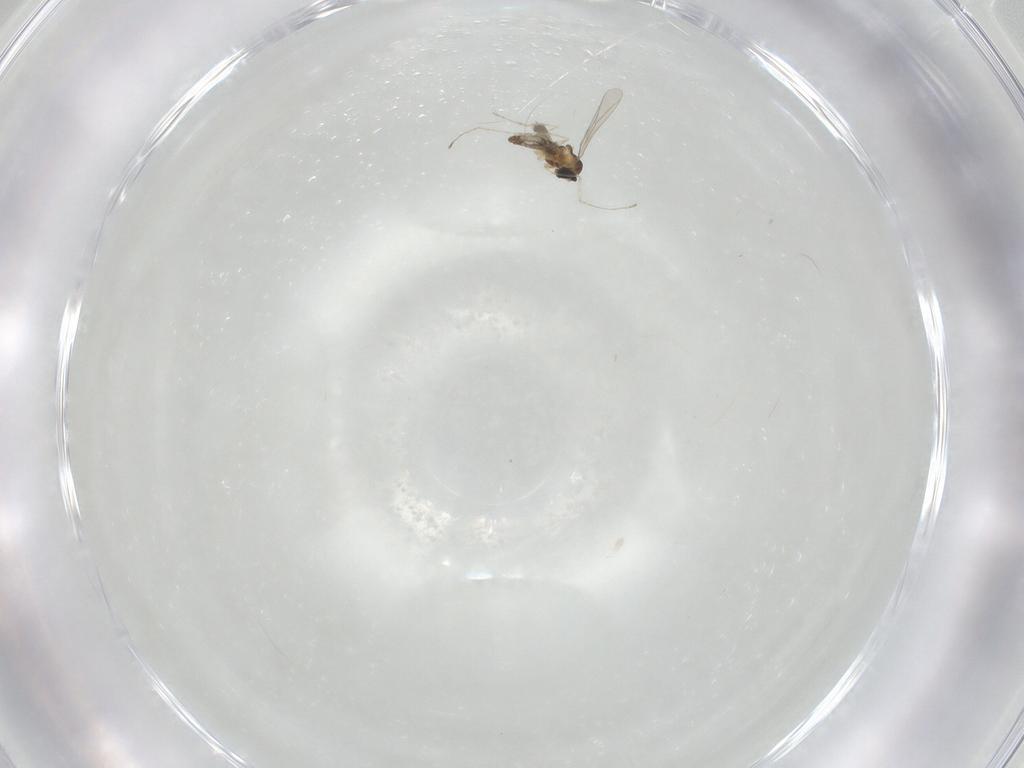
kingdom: Animalia
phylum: Arthropoda
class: Insecta
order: Diptera
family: Cecidomyiidae
